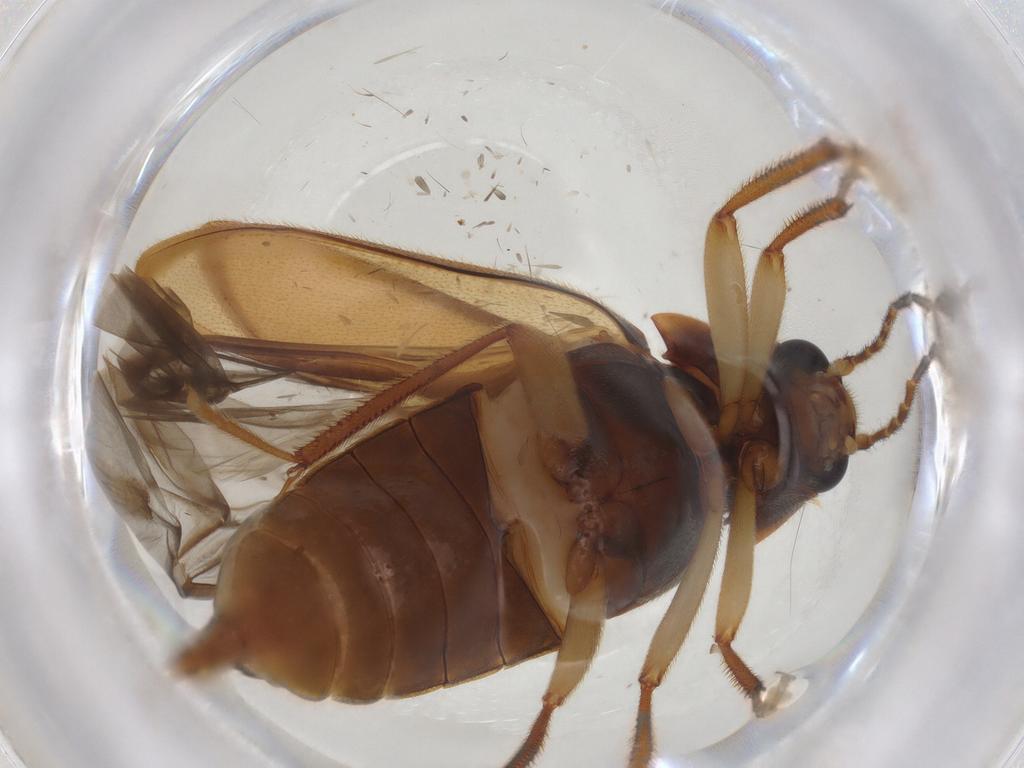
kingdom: Animalia
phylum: Arthropoda
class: Insecta
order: Coleoptera
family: Ptilodactylidae
